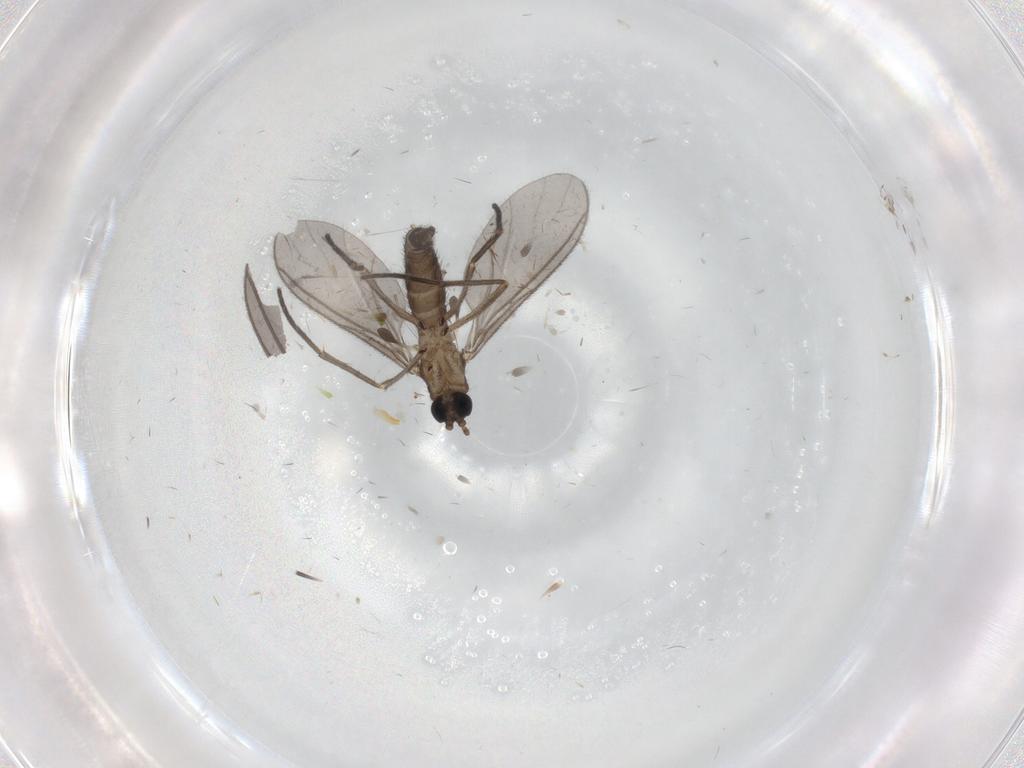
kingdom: Animalia
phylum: Arthropoda
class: Insecta
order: Diptera
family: Sciaridae
